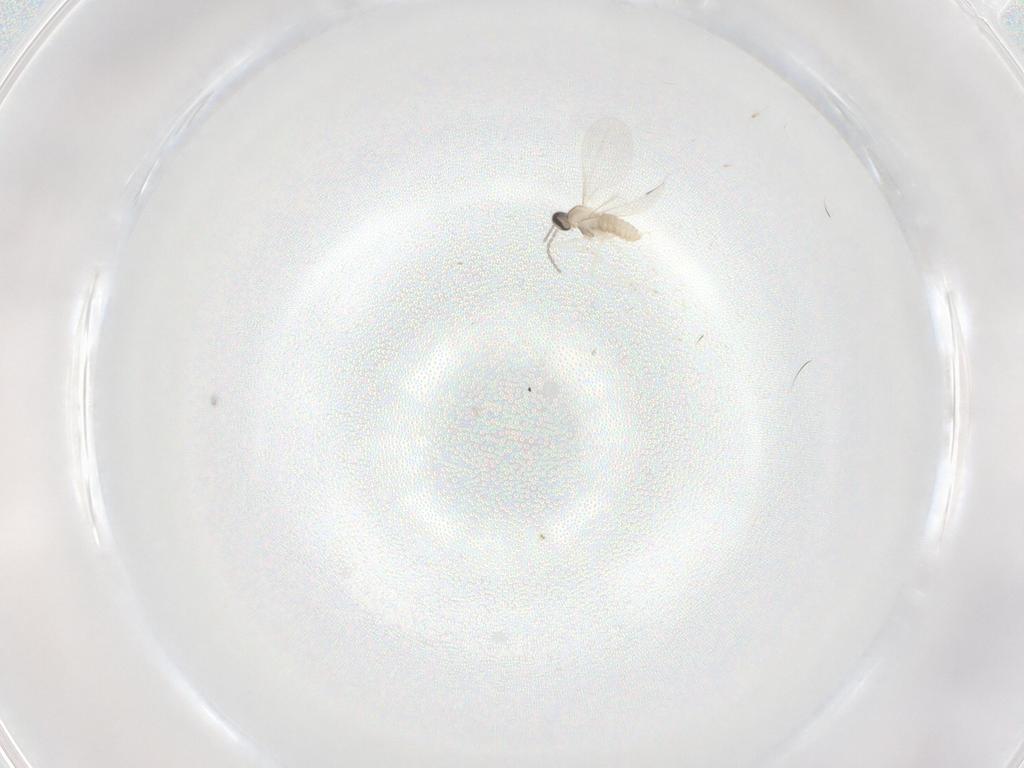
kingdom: Animalia
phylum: Arthropoda
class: Insecta
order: Diptera
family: Cecidomyiidae
